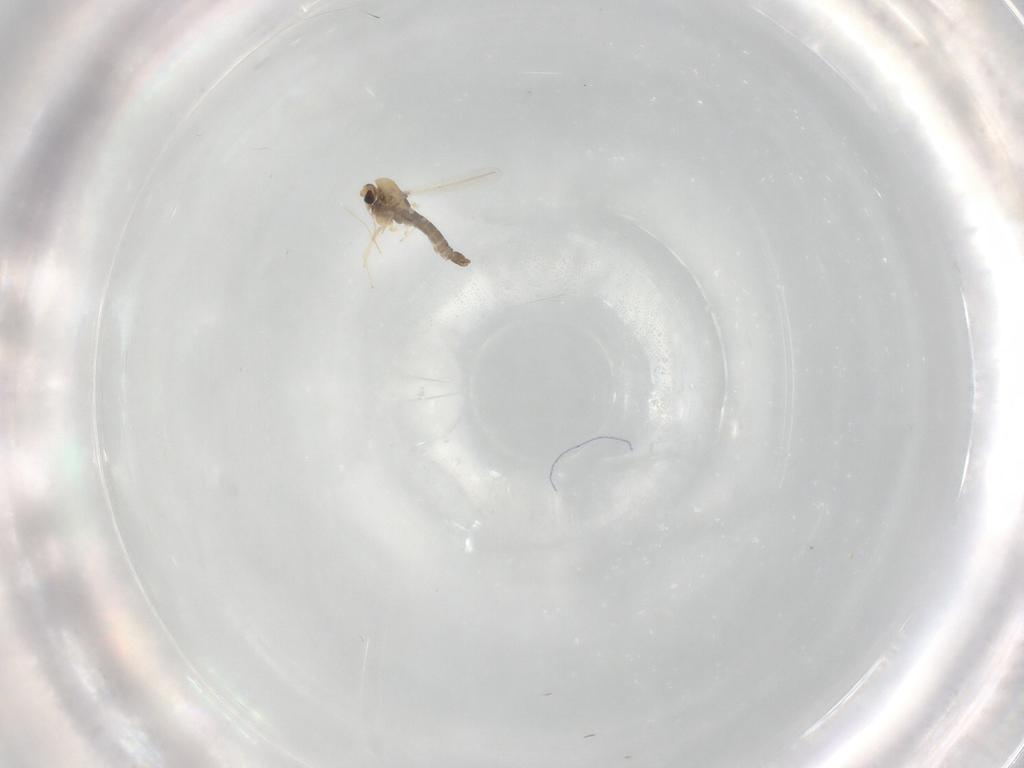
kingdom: Animalia
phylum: Arthropoda
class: Insecta
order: Diptera
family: Chironomidae
